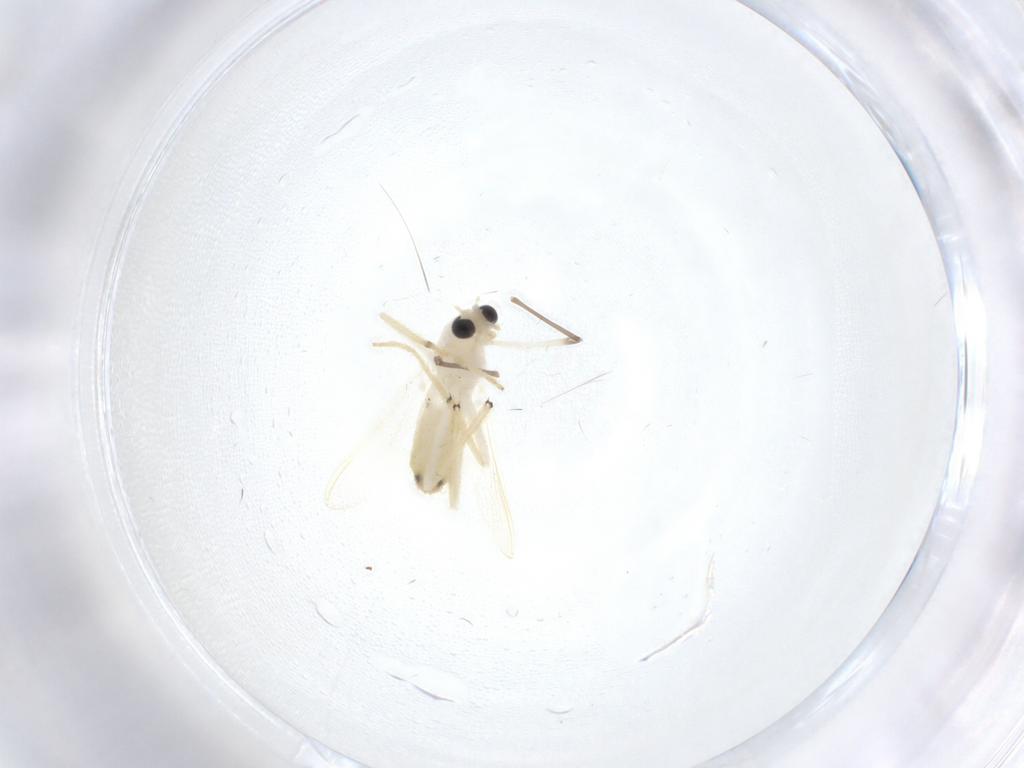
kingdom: Animalia
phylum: Arthropoda
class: Insecta
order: Diptera
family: Chironomidae
